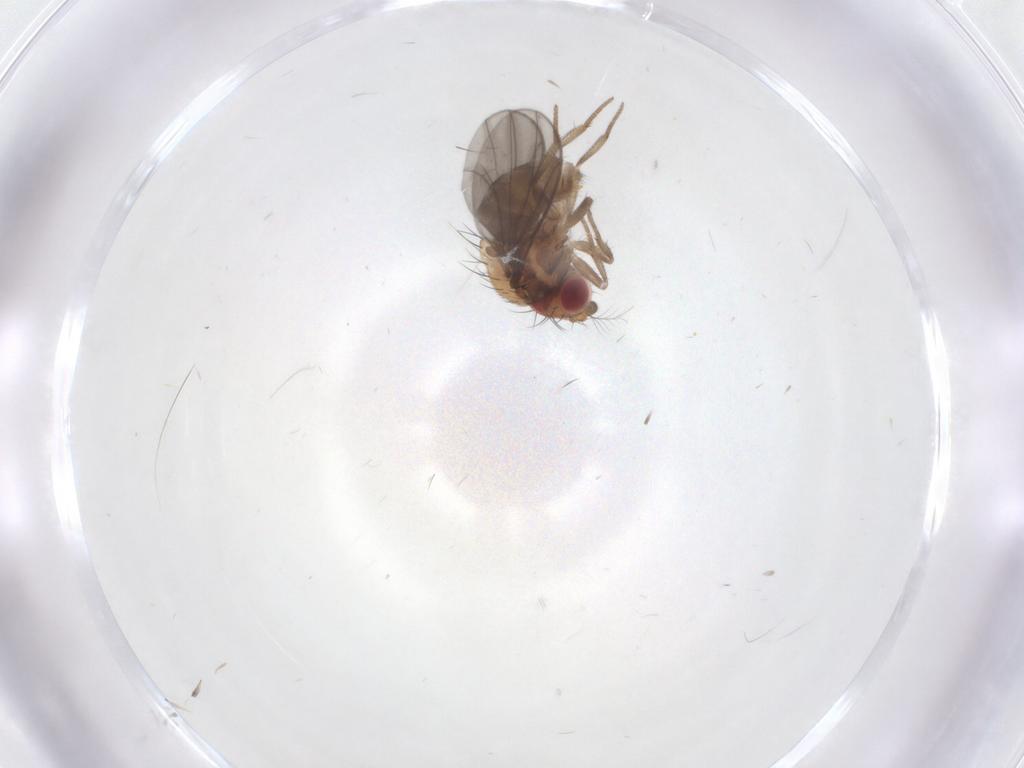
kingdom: Animalia
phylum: Arthropoda
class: Insecta
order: Diptera
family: Drosophilidae
